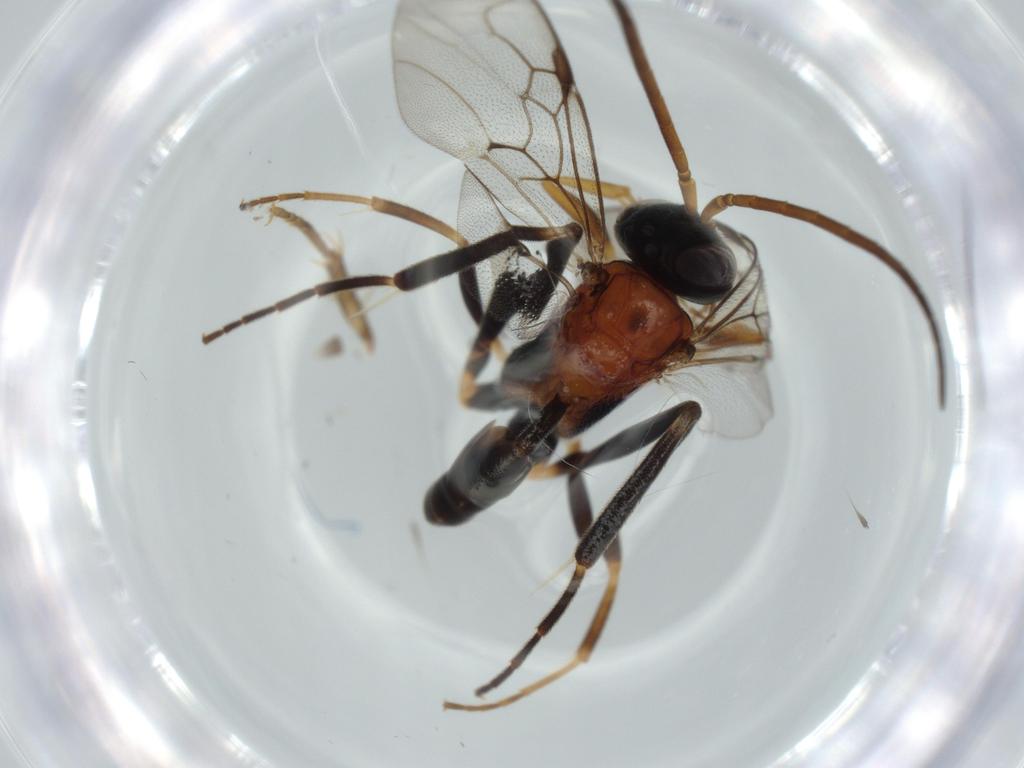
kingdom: Animalia
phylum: Arthropoda
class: Insecta
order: Hymenoptera
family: Evaniidae
